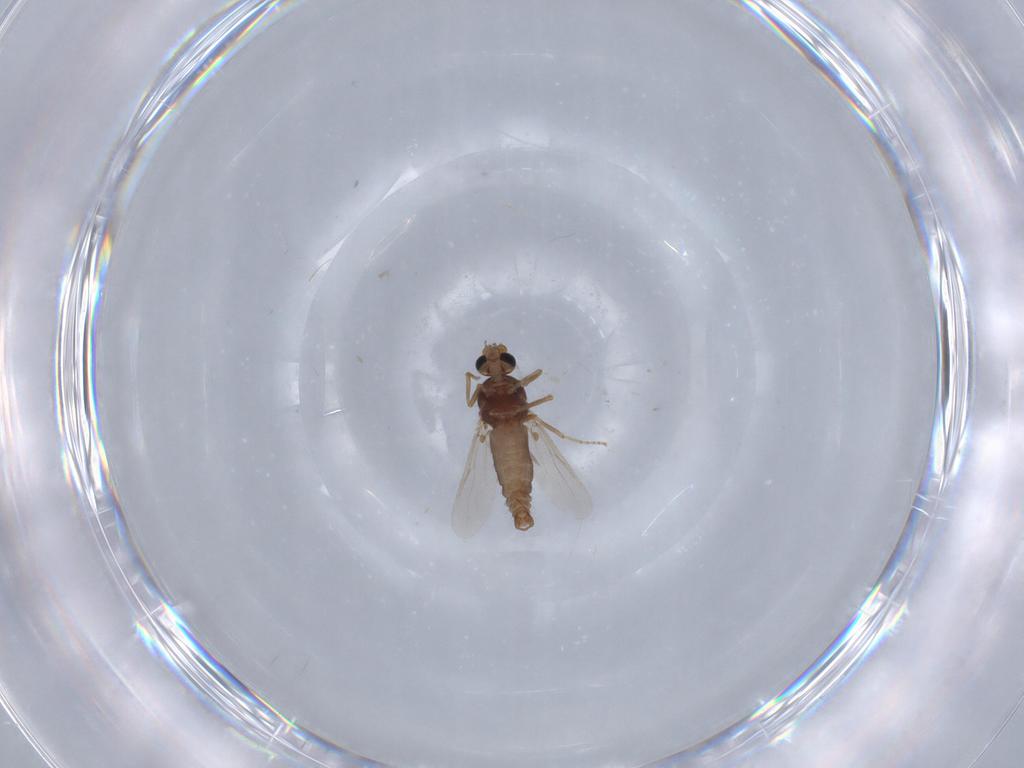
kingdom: Animalia
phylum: Arthropoda
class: Insecta
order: Diptera
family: Ceratopogonidae
